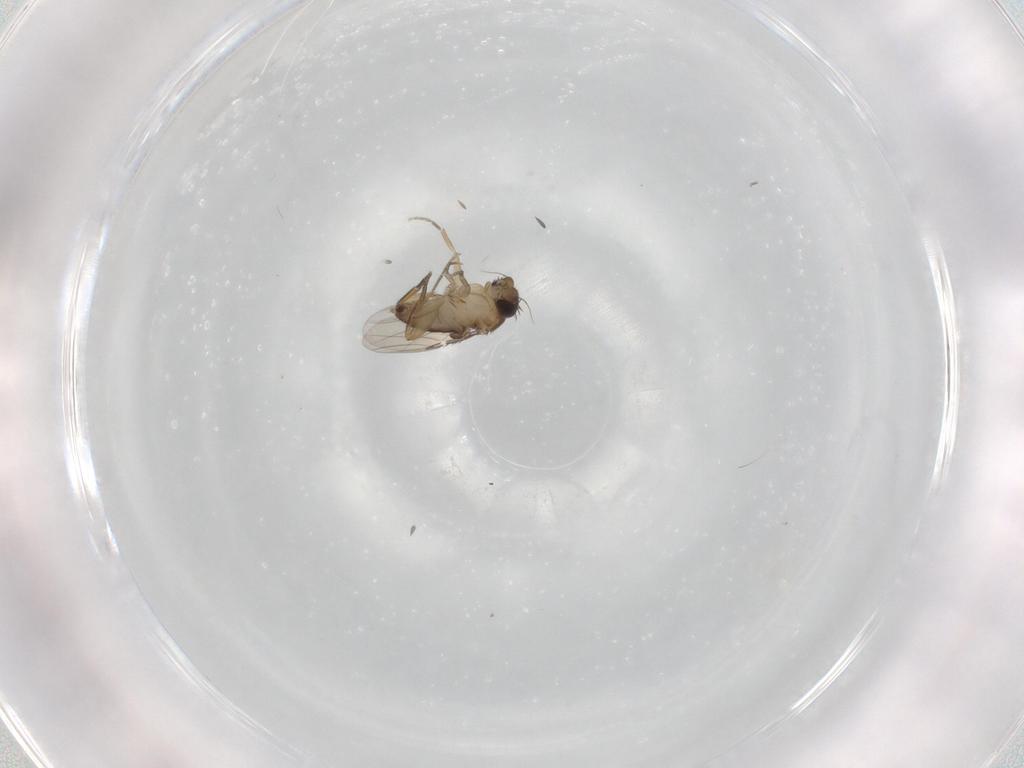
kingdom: Animalia
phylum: Arthropoda
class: Insecta
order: Diptera
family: Phoridae
